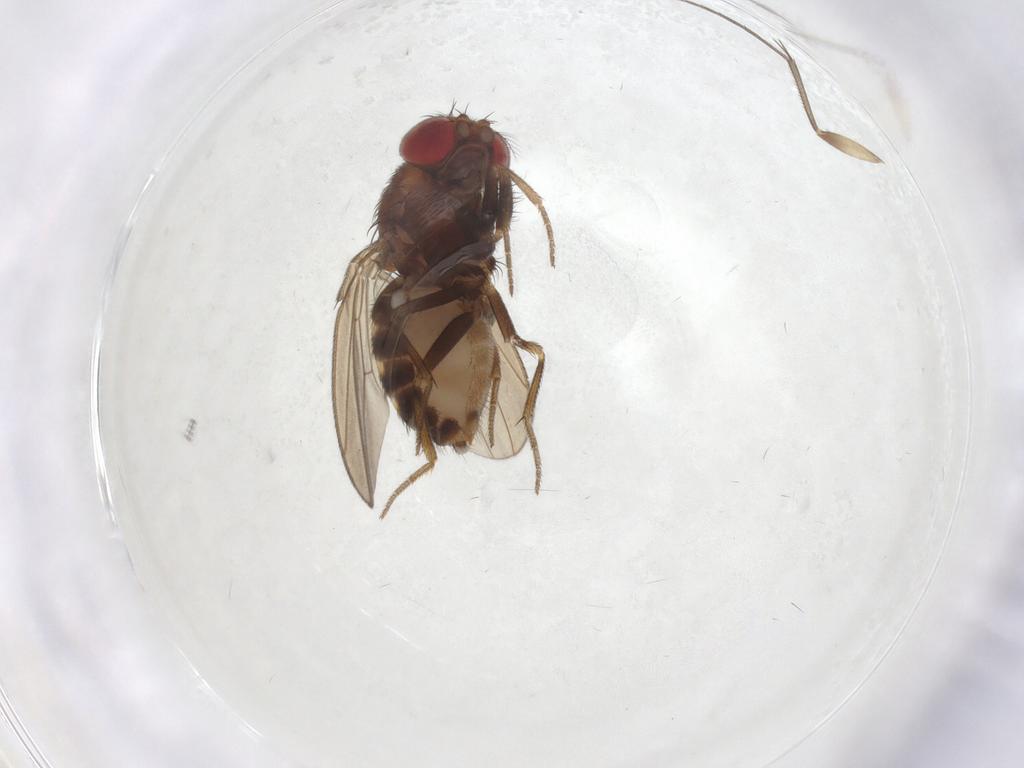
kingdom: Animalia
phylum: Arthropoda
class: Insecta
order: Diptera
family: Drosophilidae
